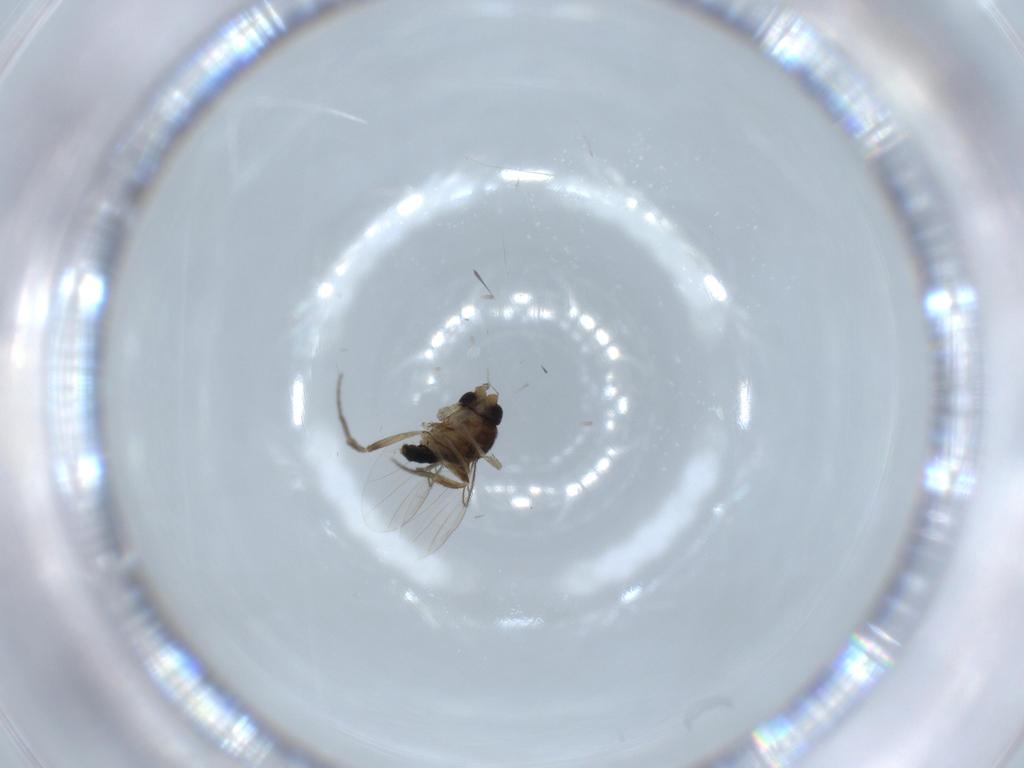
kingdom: Animalia
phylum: Arthropoda
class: Insecta
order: Diptera
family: Phoridae
